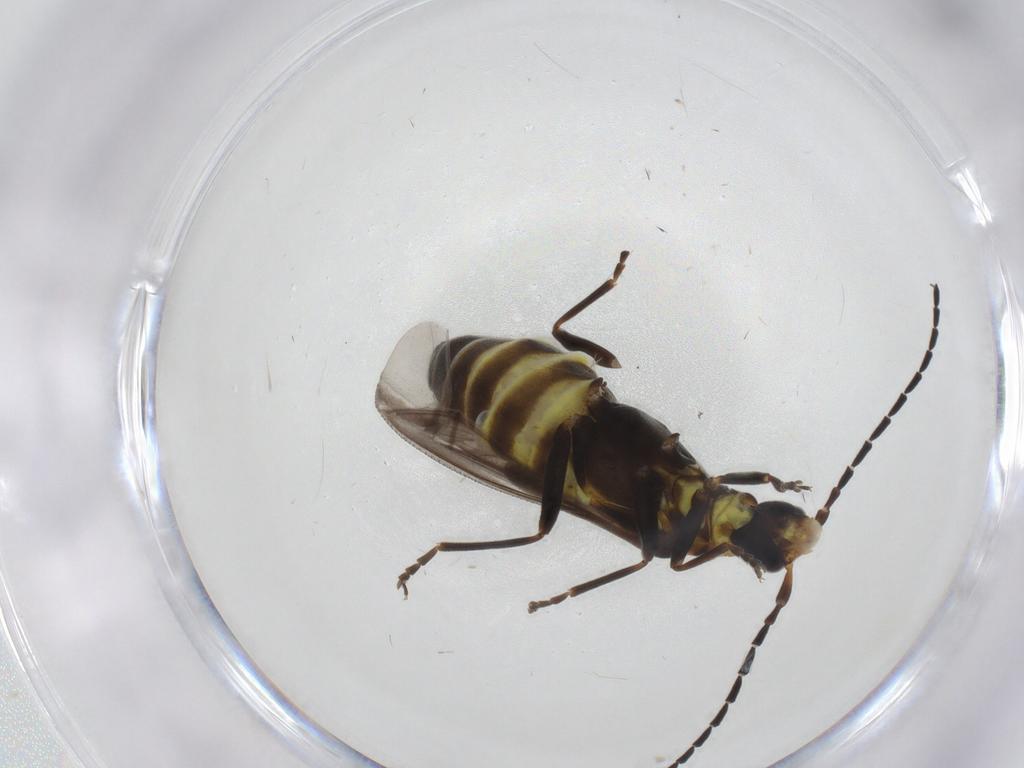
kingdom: Animalia
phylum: Arthropoda
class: Insecta
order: Coleoptera
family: Cantharidae
